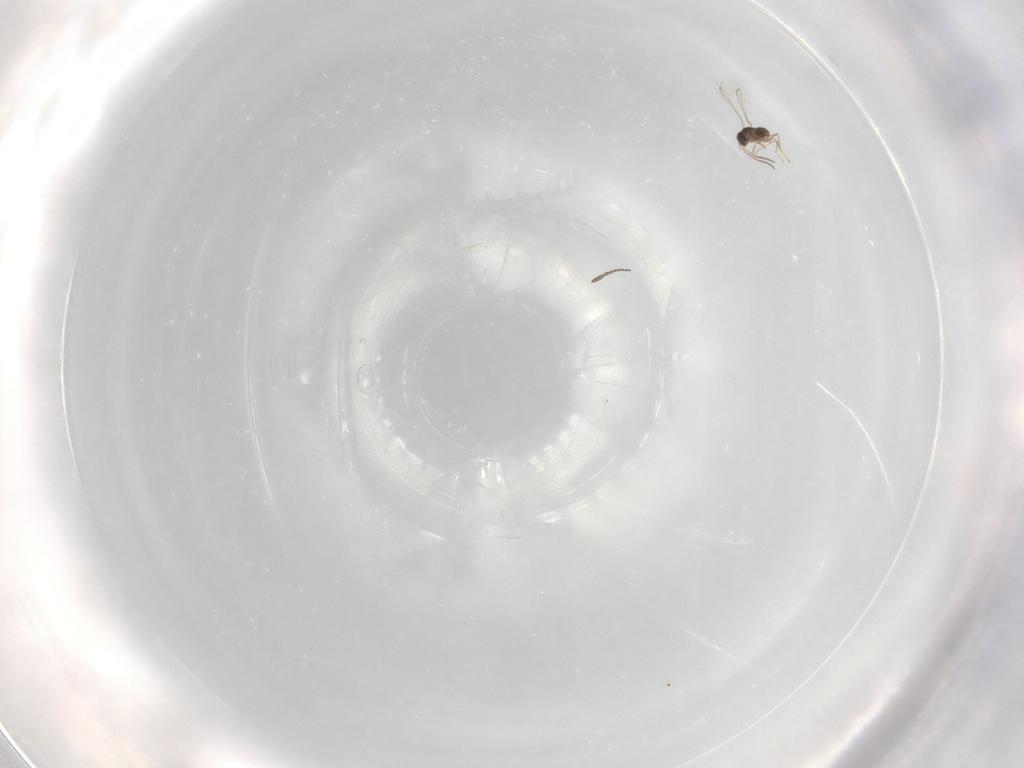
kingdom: Animalia
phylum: Arthropoda
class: Insecta
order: Hymenoptera
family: Mymaridae
